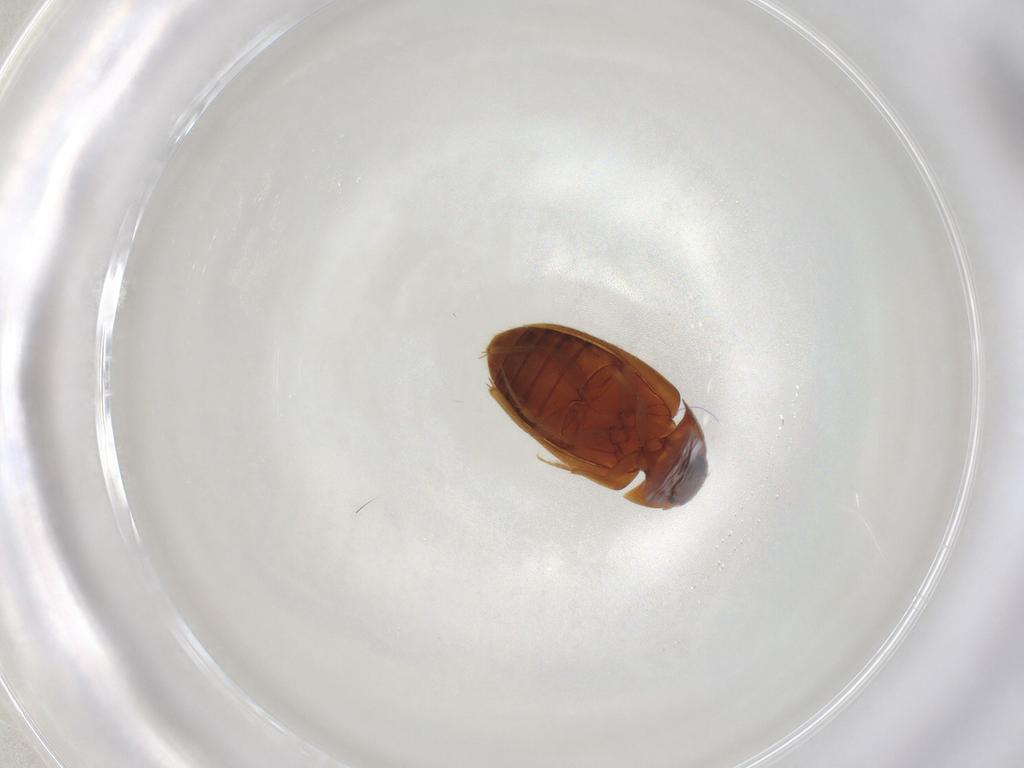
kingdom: Animalia
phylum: Arthropoda
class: Insecta
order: Coleoptera
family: Mycetophagidae
